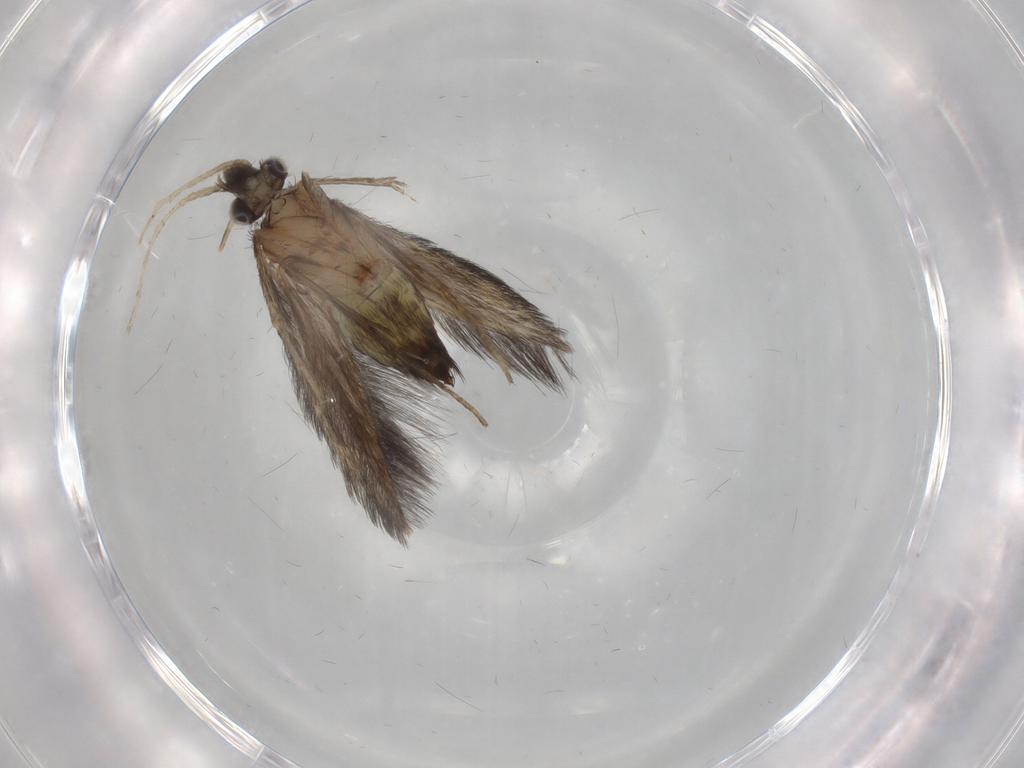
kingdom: Animalia
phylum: Arthropoda
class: Insecta
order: Trichoptera
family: Hydroptilidae
